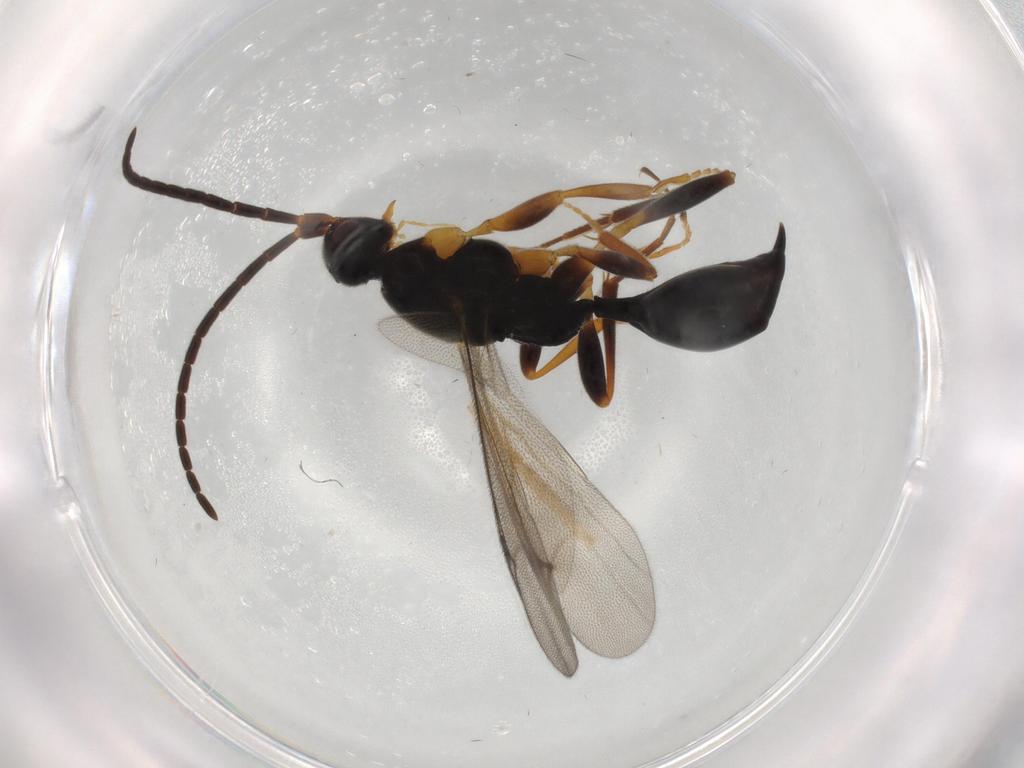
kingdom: Animalia
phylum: Arthropoda
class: Insecta
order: Hymenoptera
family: Proctotrupidae
